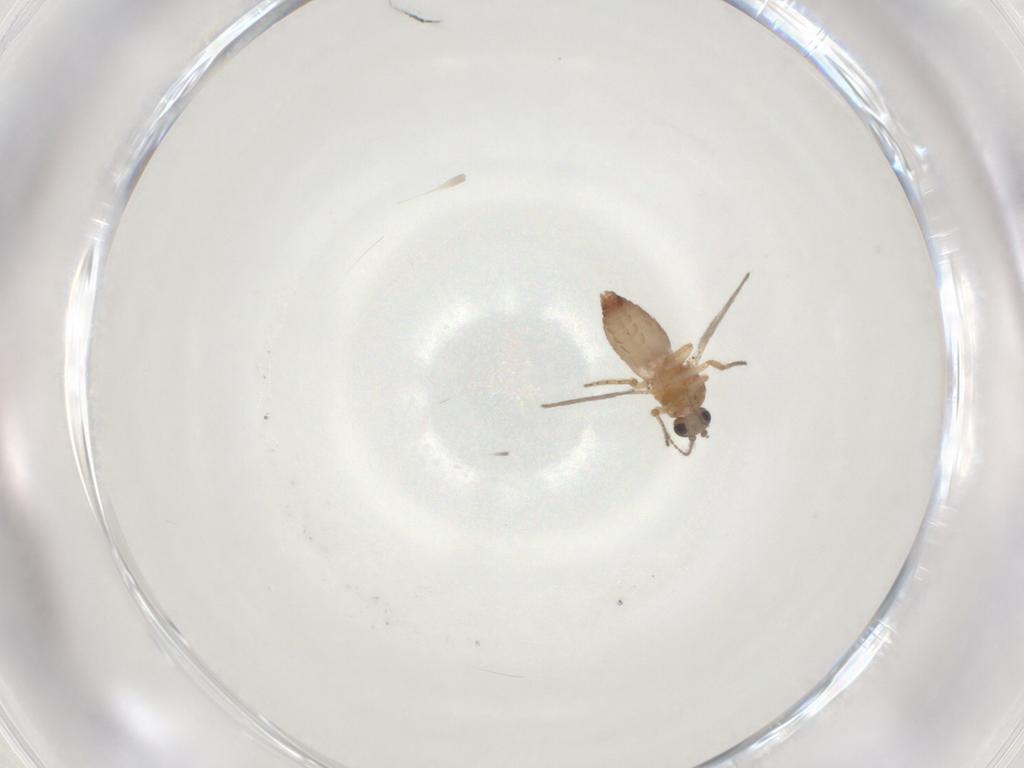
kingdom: Animalia
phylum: Arthropoda
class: Insecta
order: Diptera
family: Ceratopogonidae
